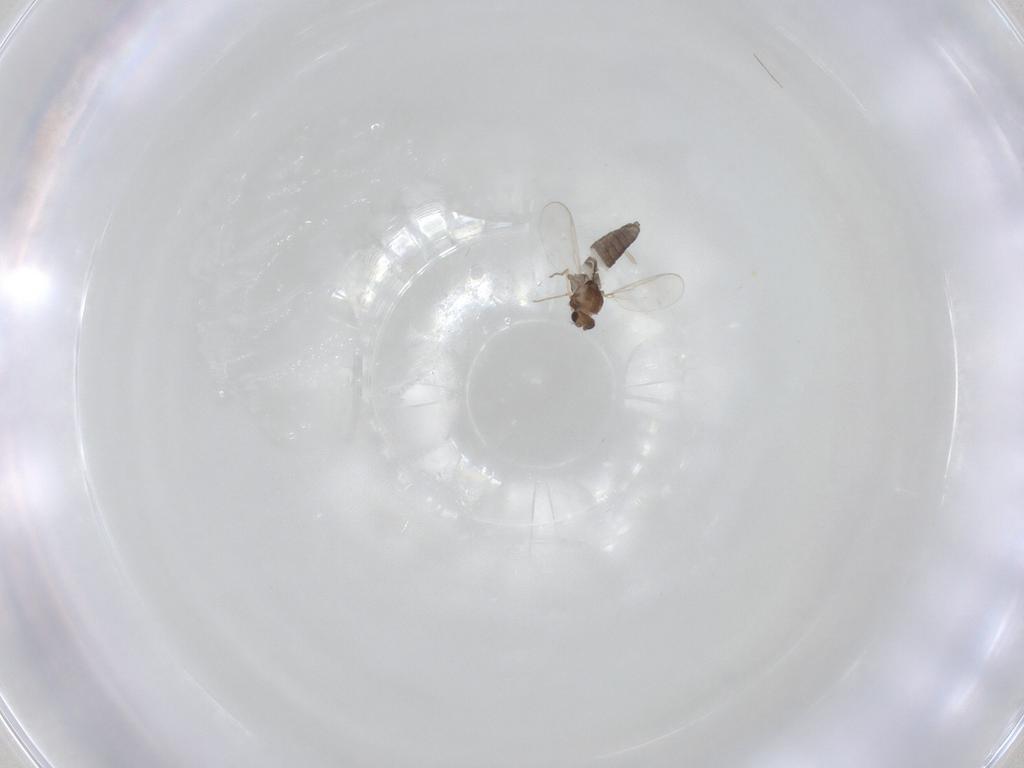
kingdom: Animalia
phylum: Arthropoda
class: Insecta
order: Diptera
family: Chironomidae
